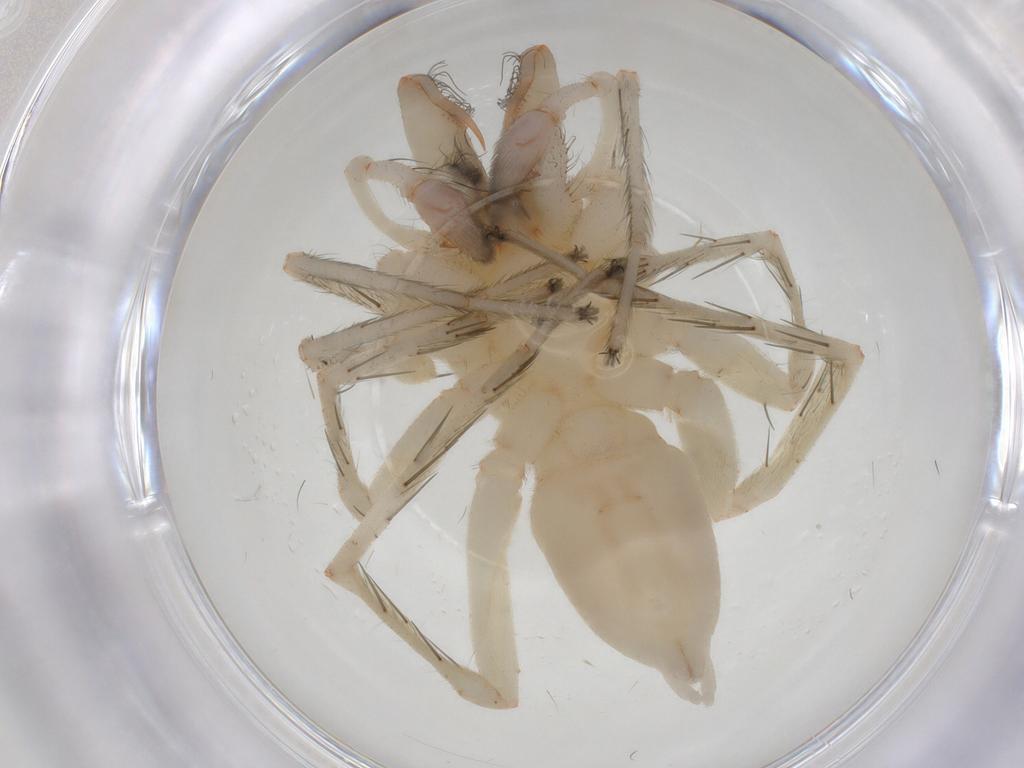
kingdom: Animalia
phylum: Arthropoda
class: Arachnida
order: Araneae
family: Anyphaenidae
